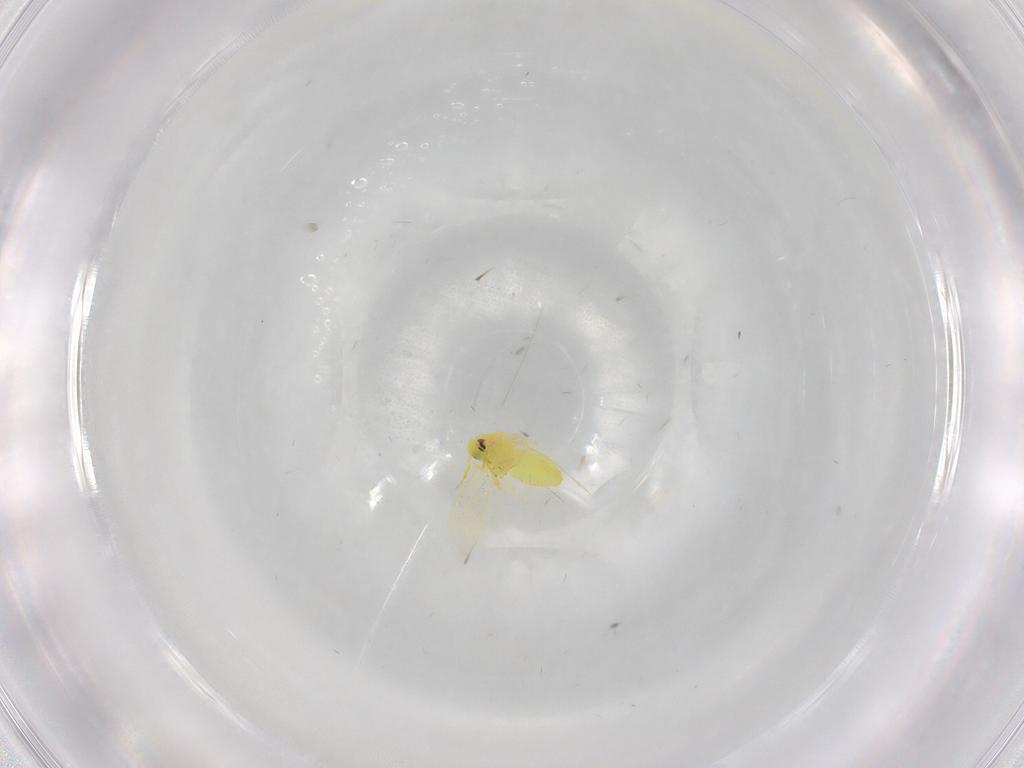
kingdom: Animalia
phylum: Arthropoda
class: Insecta
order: Hemiptera
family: Aleyrodidae
